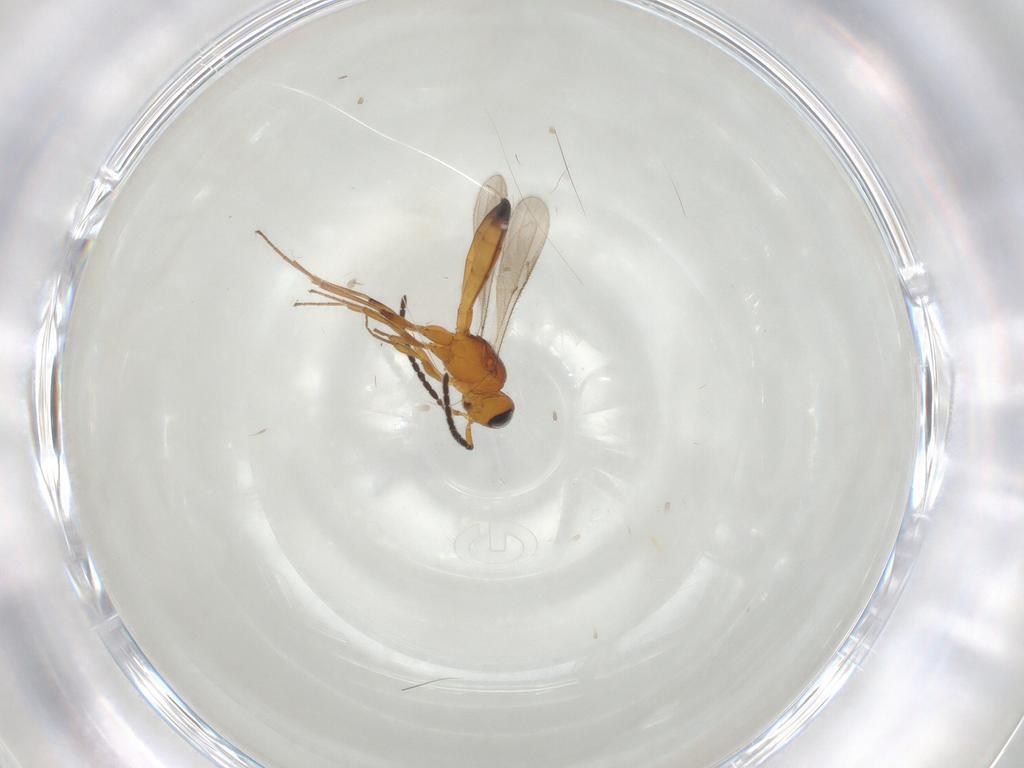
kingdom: Animalia
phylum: Arthropoda
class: Insecta
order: Hymenoptera
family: Scelionidae
